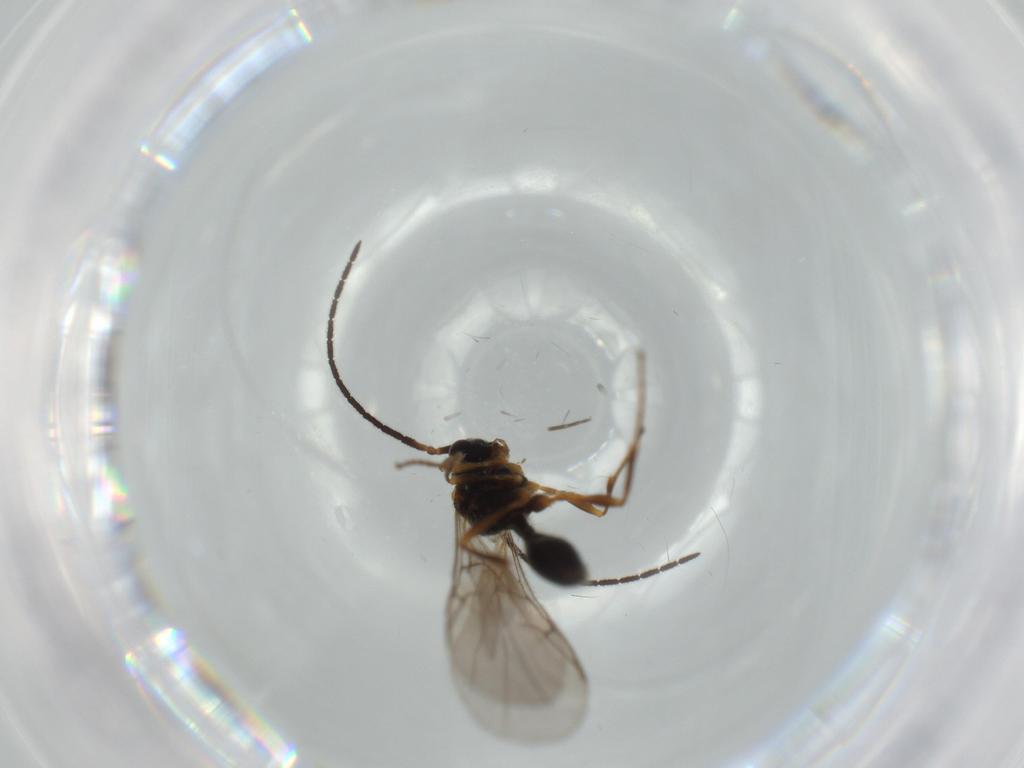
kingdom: Animalia
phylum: Arthropoda
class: Insecta
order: Hymenoptera
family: Diapriidae
